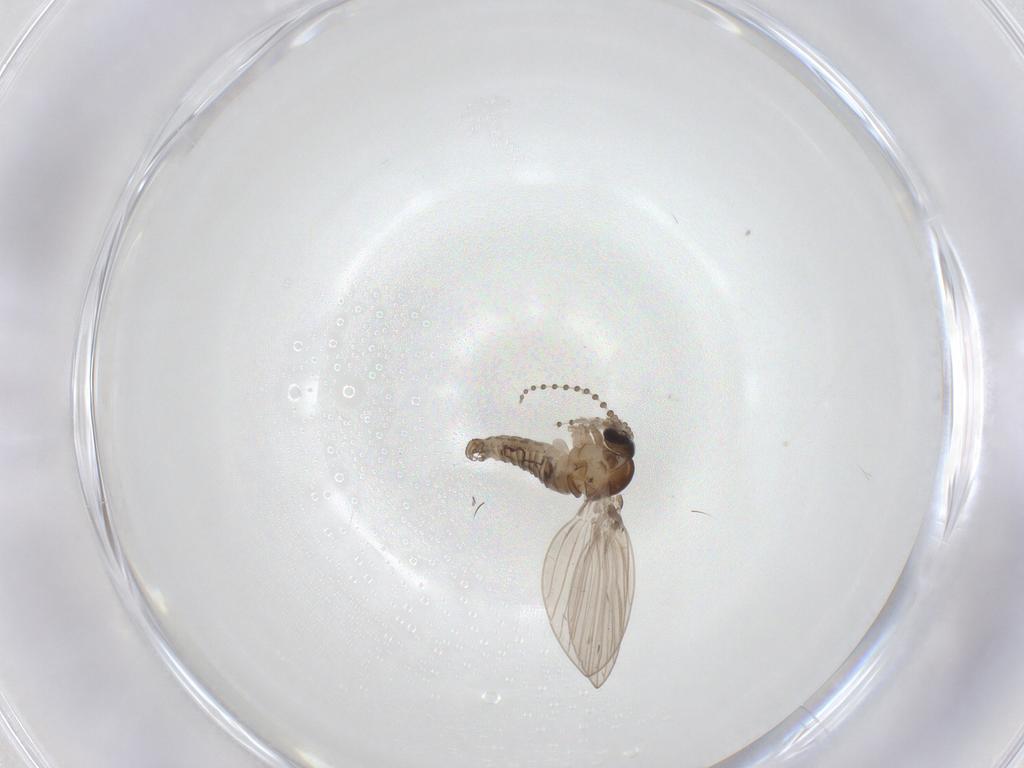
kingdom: Animalia
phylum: Arthropoda
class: Insecta
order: Diptera
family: Psychodidae
